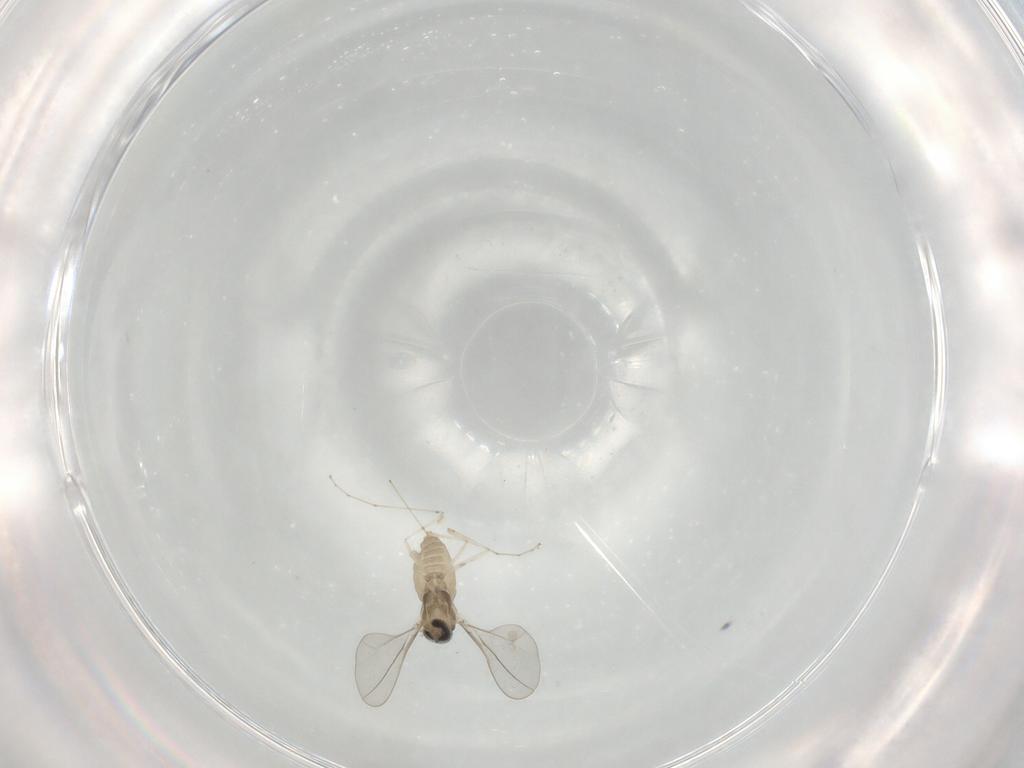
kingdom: Animalia
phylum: Arthropoda
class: Insecta
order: Diptera
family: Cecidomyiidae
